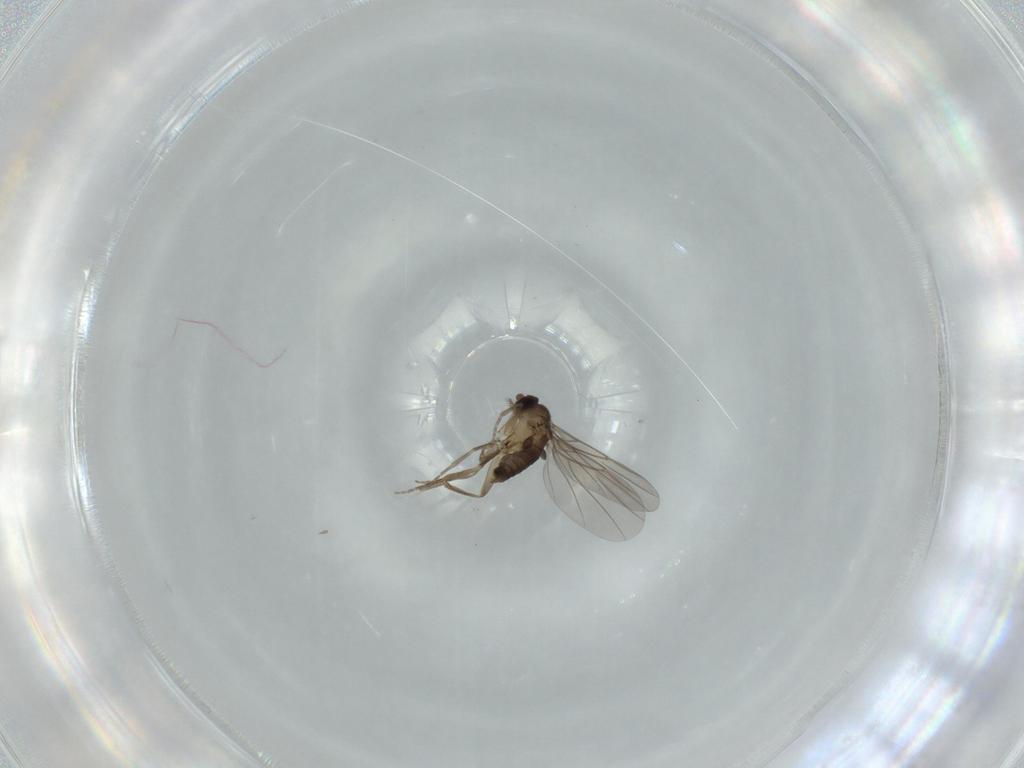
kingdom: Animalia
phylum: Arthropoda
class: Insecta
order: Diptera
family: Phoridae
